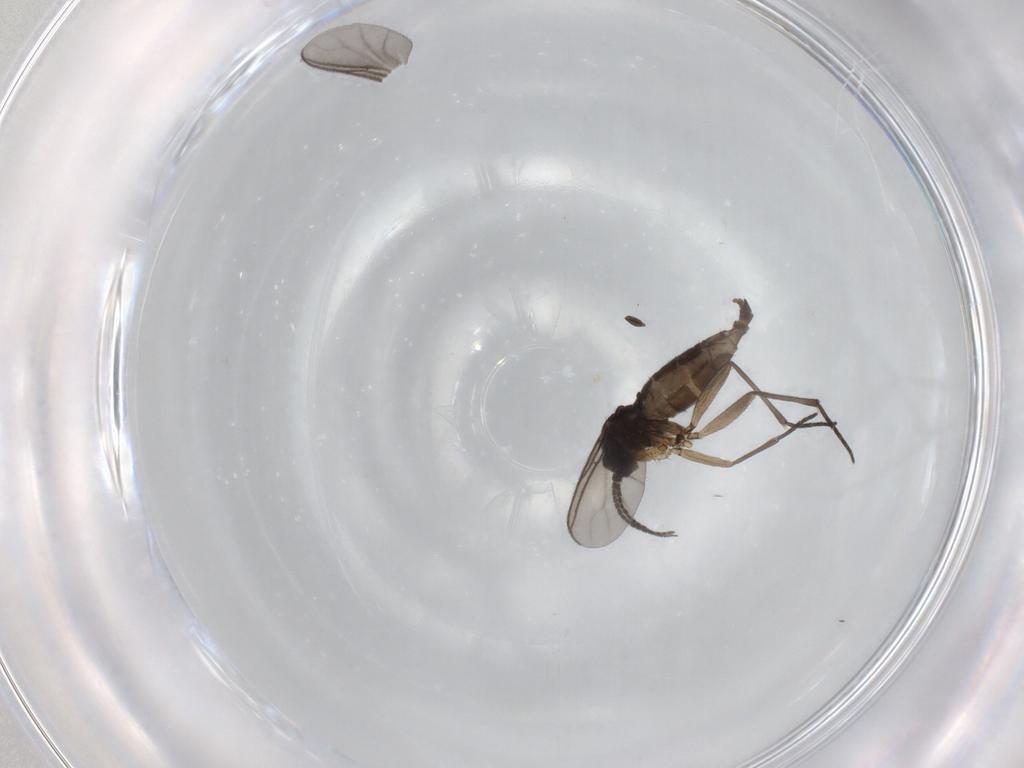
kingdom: Animalia
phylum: Arthropoda
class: Insecta
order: Diptera
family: Sciaridae
